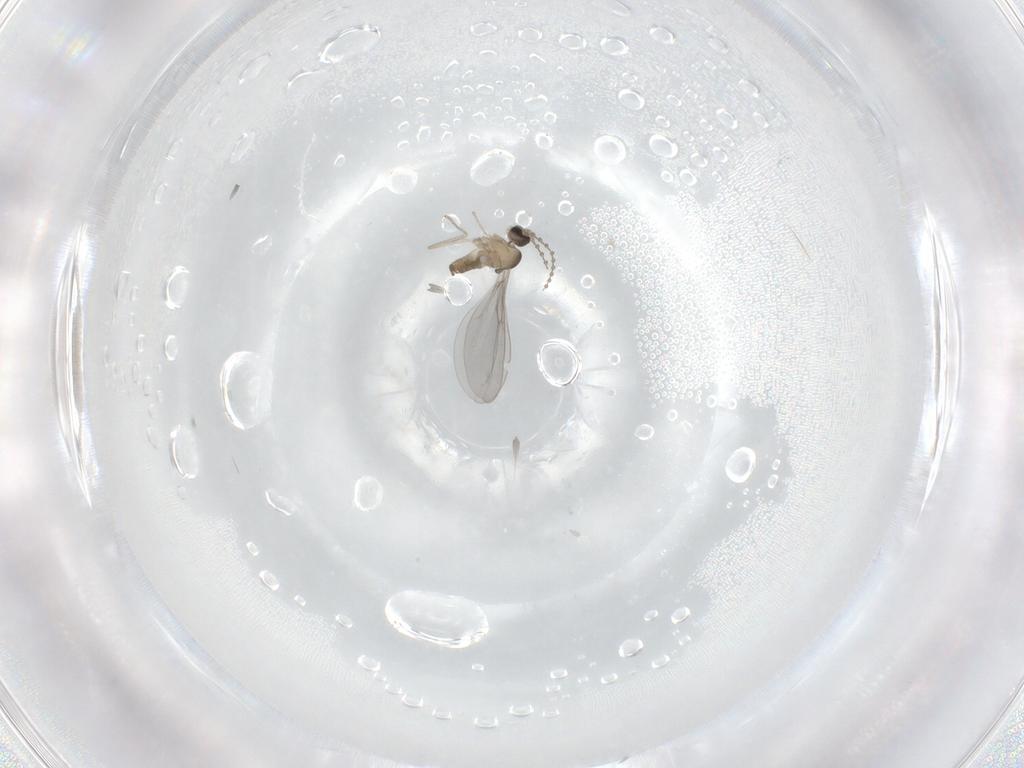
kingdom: Animalia
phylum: Arthropoda
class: Insecta
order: Diptera
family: Cecidomyiidae
